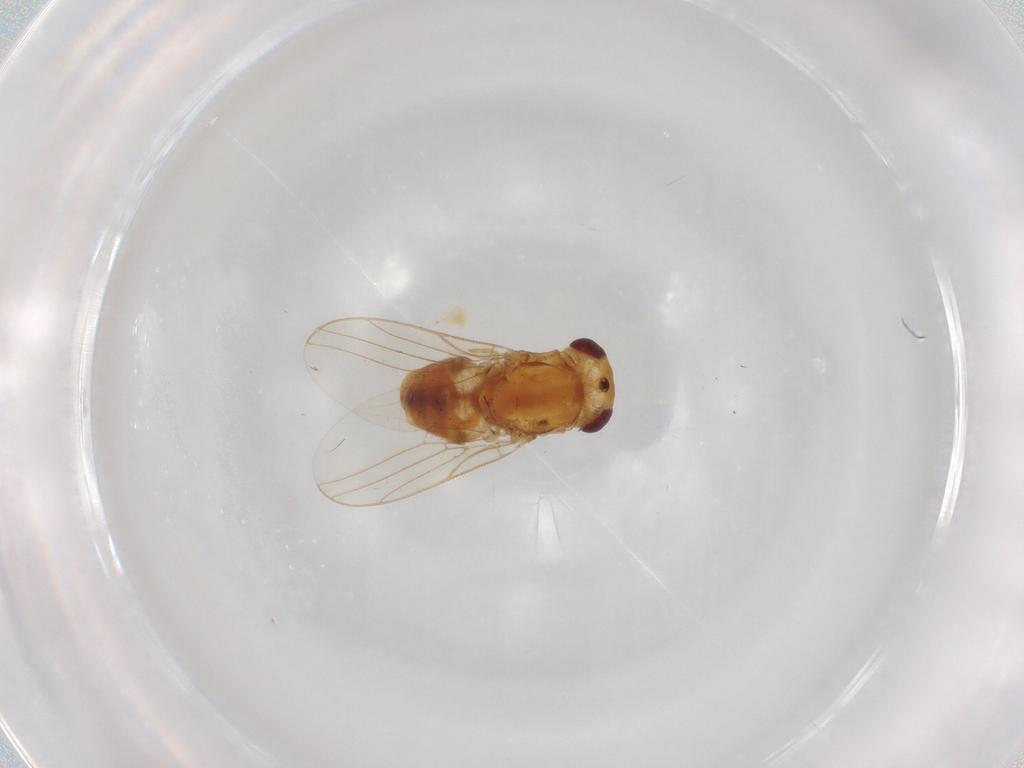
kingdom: Animalia
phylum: Arthropoda
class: Insecta
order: Diptera
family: Chloropidae
